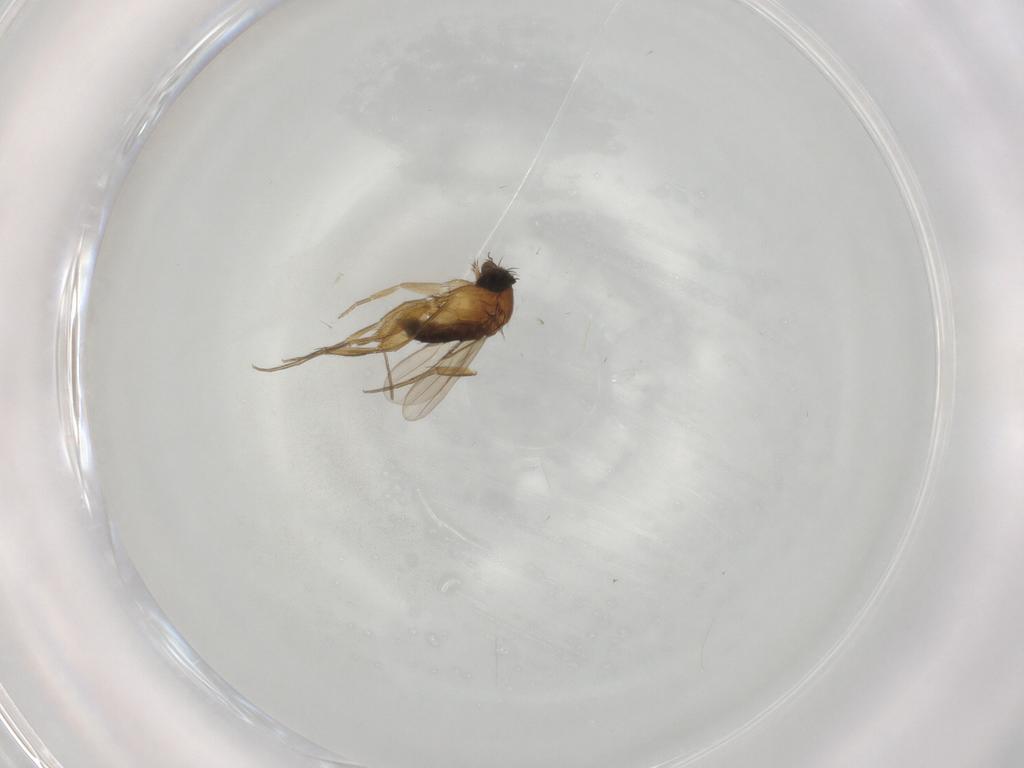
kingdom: Animalia
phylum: Arthropoda
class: Insecta
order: Diptera
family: Phoridae
